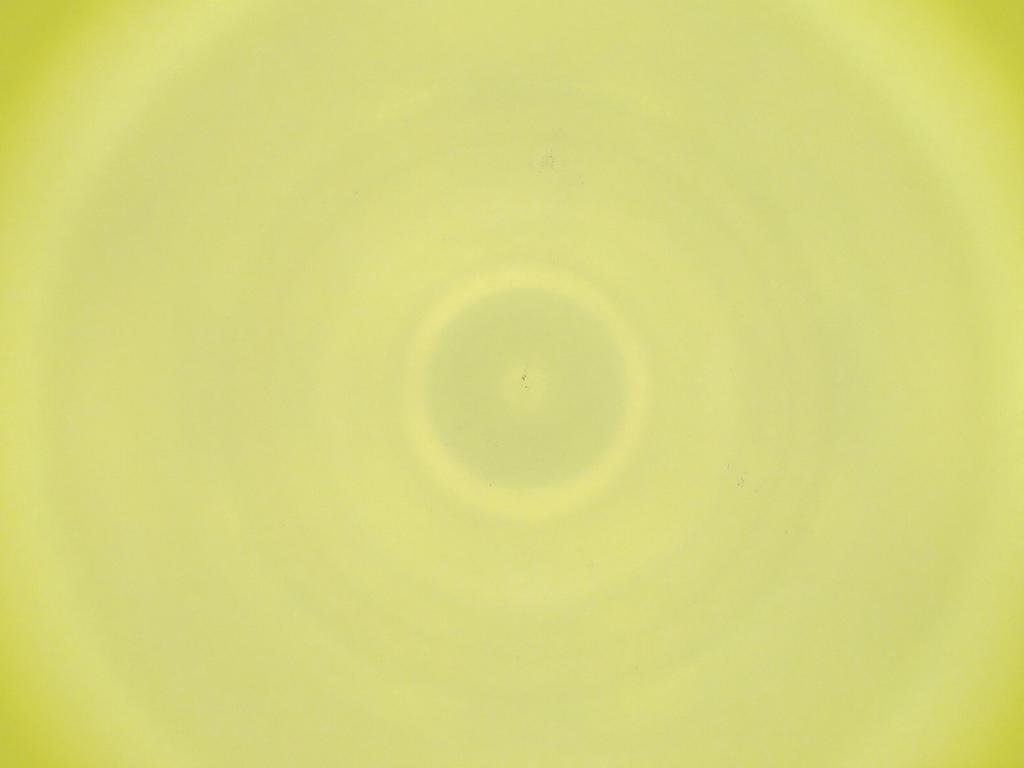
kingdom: Animalia
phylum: Arthropoda
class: Insecta
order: Diptera
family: Cecidomyiidae
